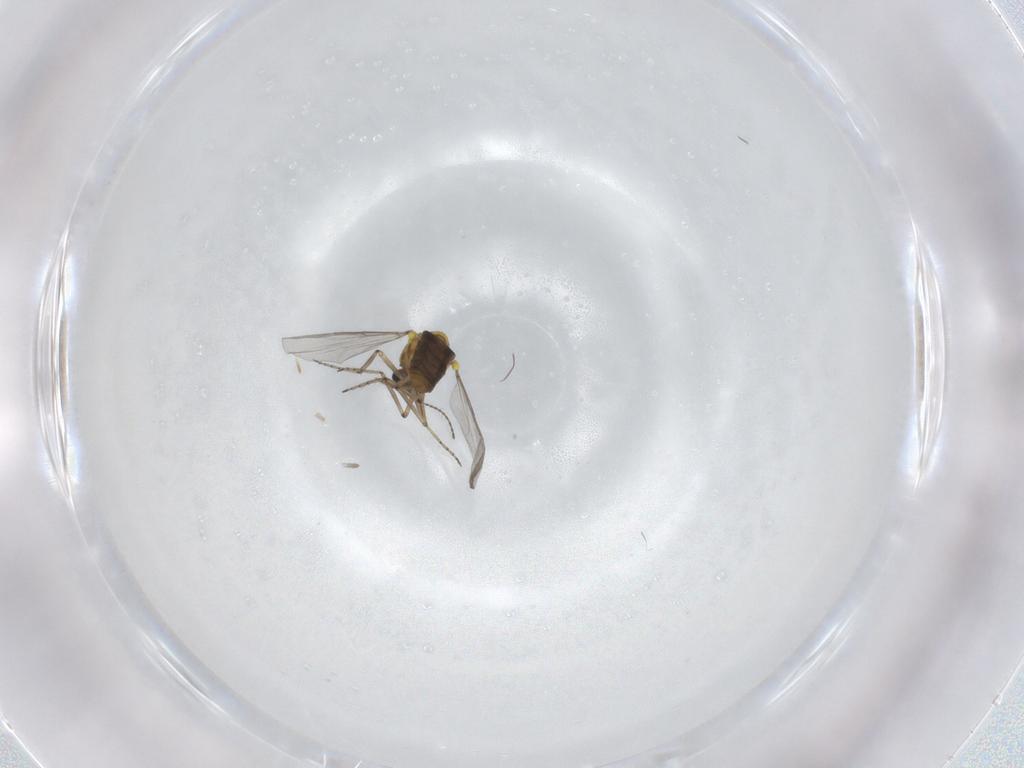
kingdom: Animalia
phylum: Arthropoda
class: Insecta
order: Diptera
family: Ceratopogonidae
